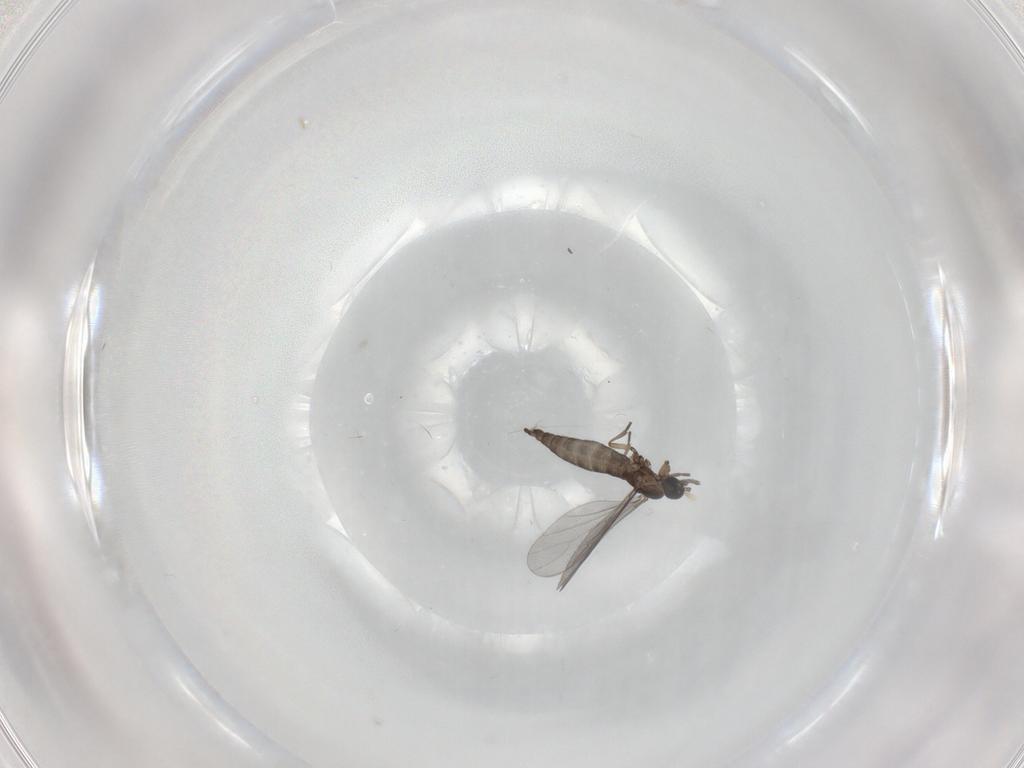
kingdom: Animalia
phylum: Arthropoda
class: Insecta
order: Diptera
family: Sciaridae
